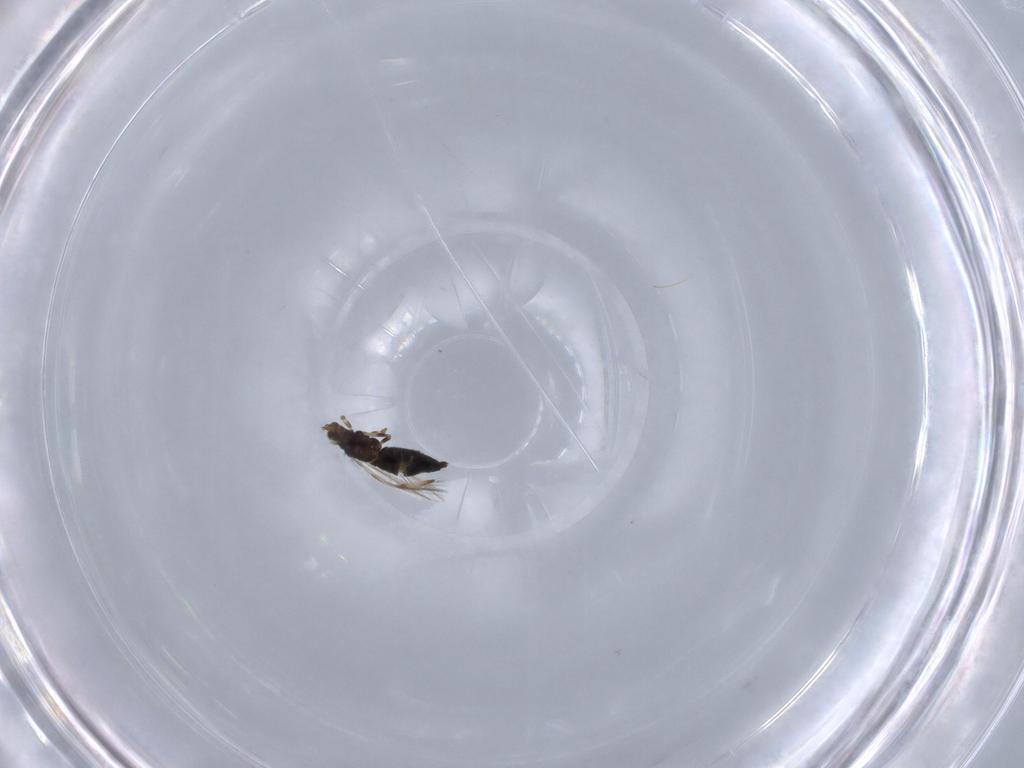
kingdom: Animalia
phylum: Arthropoda
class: Insecta
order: Thysanoptera
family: Thripidae
